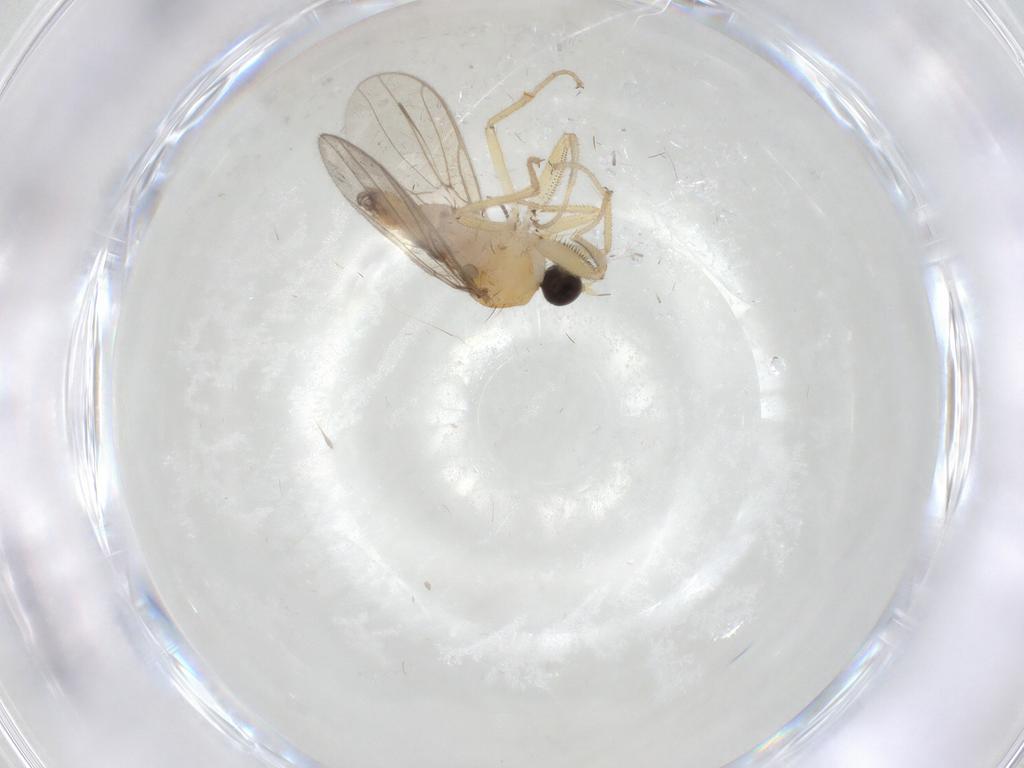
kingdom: Animalia
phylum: Arthropoda
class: Insecta
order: Diptera
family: Hybotidae
